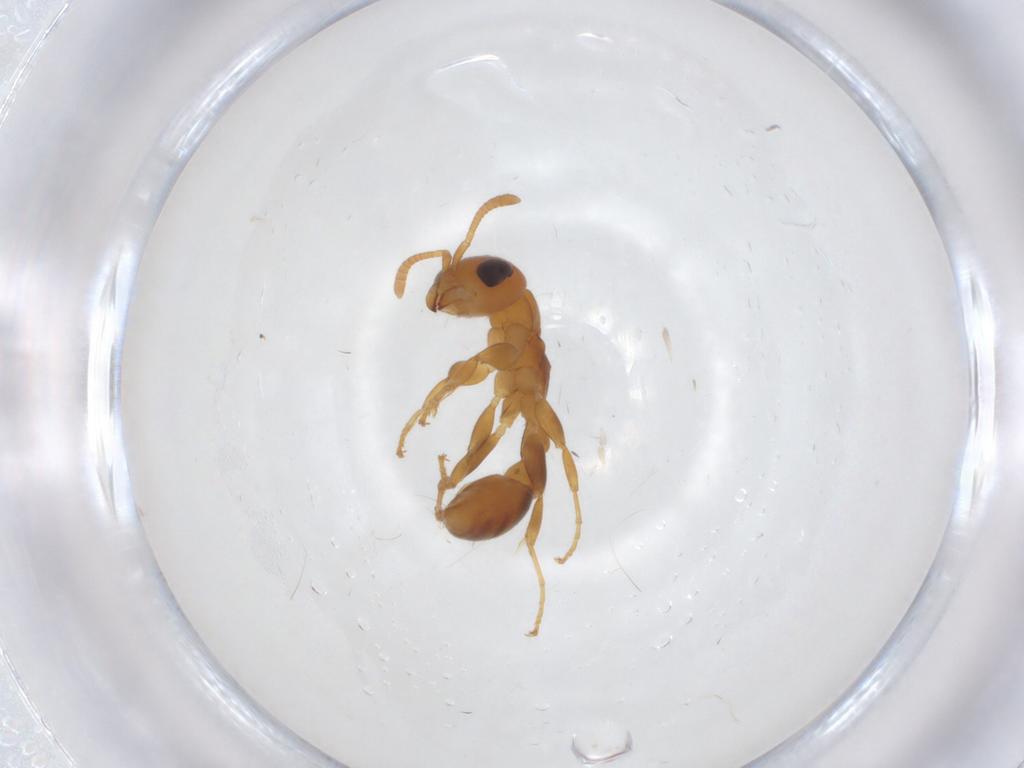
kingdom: Animalia
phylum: Arthropoda
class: Insecta
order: Hymenoptera
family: Formicidae
